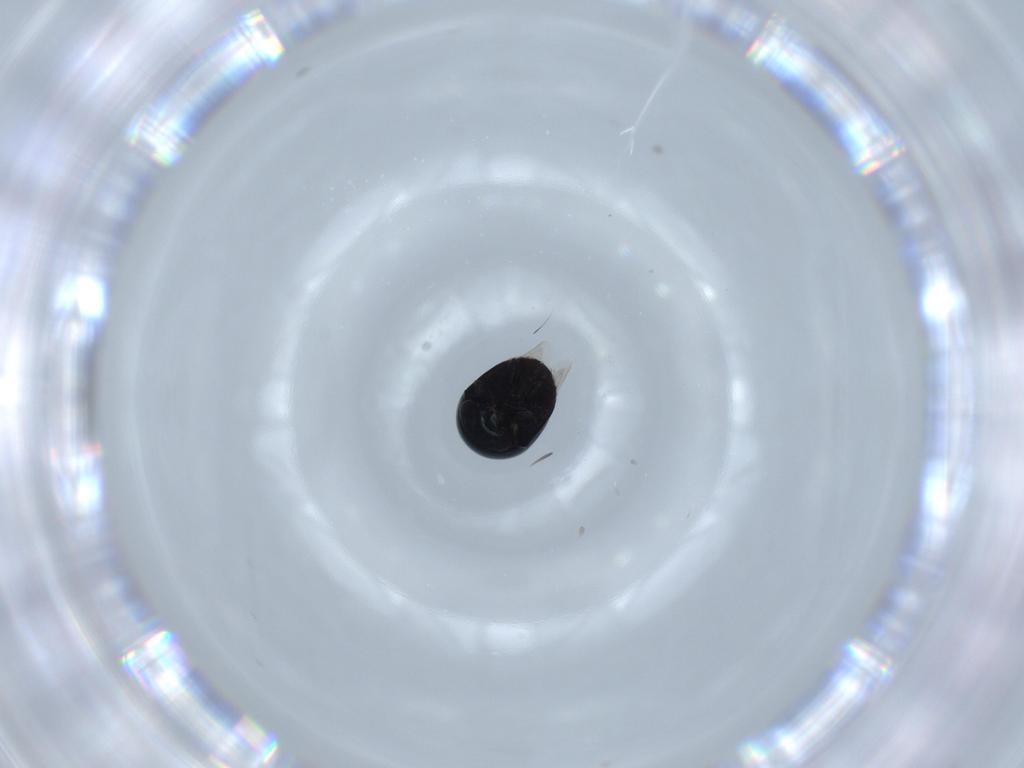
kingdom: Animalia
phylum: Arthropoda
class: Insecta
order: Coleoptera
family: Cybocephalidae
